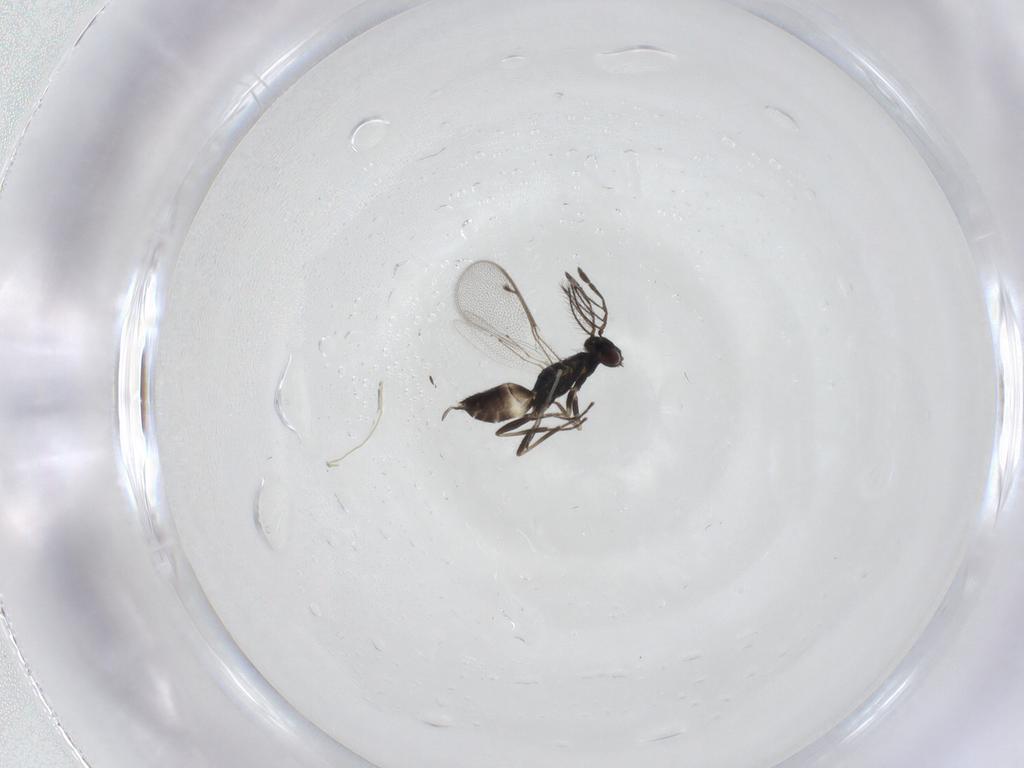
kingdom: Animalia
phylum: Arthropoda
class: Insecta
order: Hymenoptera
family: Eulophidae
